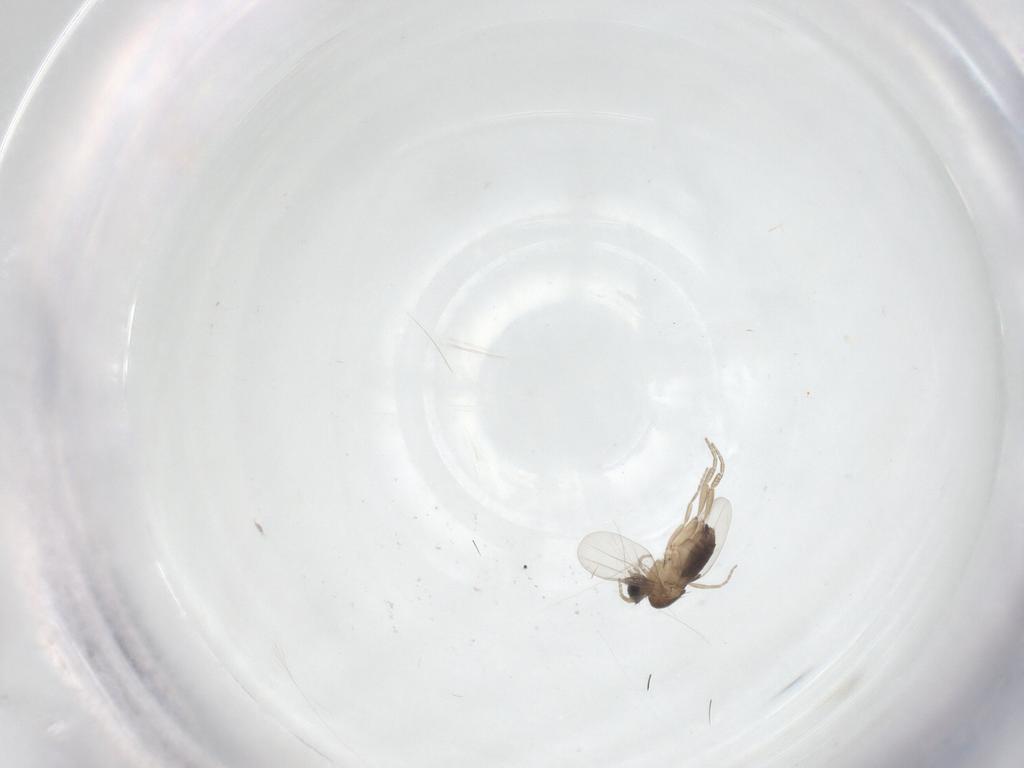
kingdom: Animalia
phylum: Arthropoda
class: Insecta
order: Diptera
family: Phoridae
